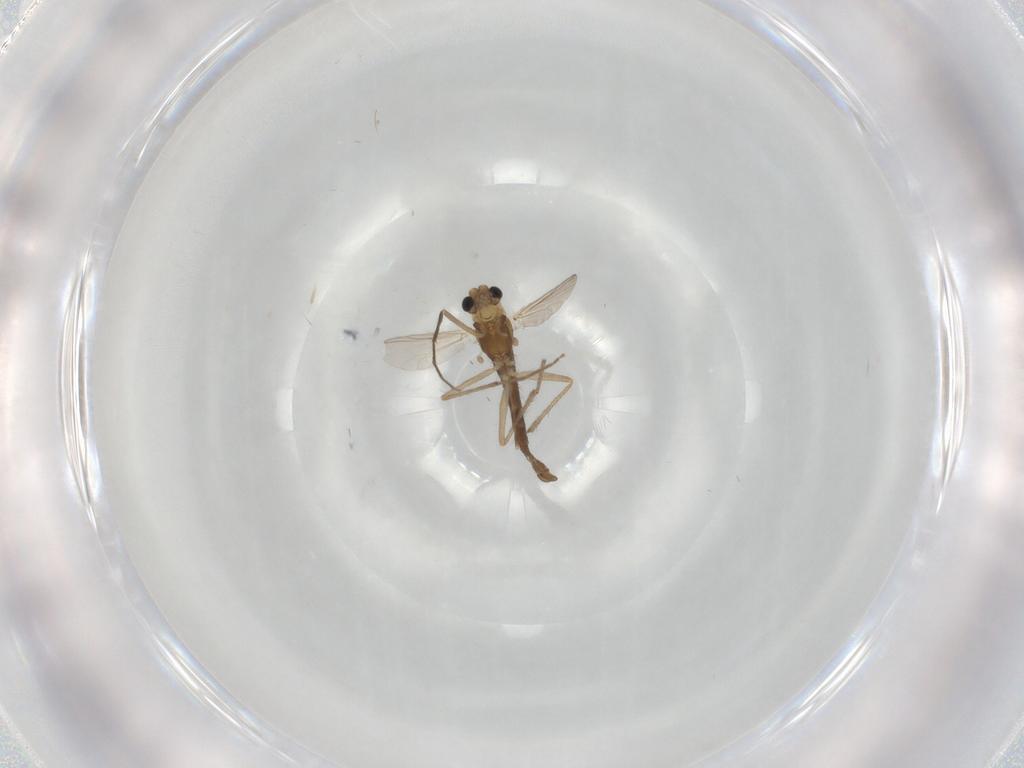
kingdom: Animalia
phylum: Arthropoda
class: Insecta
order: Diptera
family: Chironomidae
